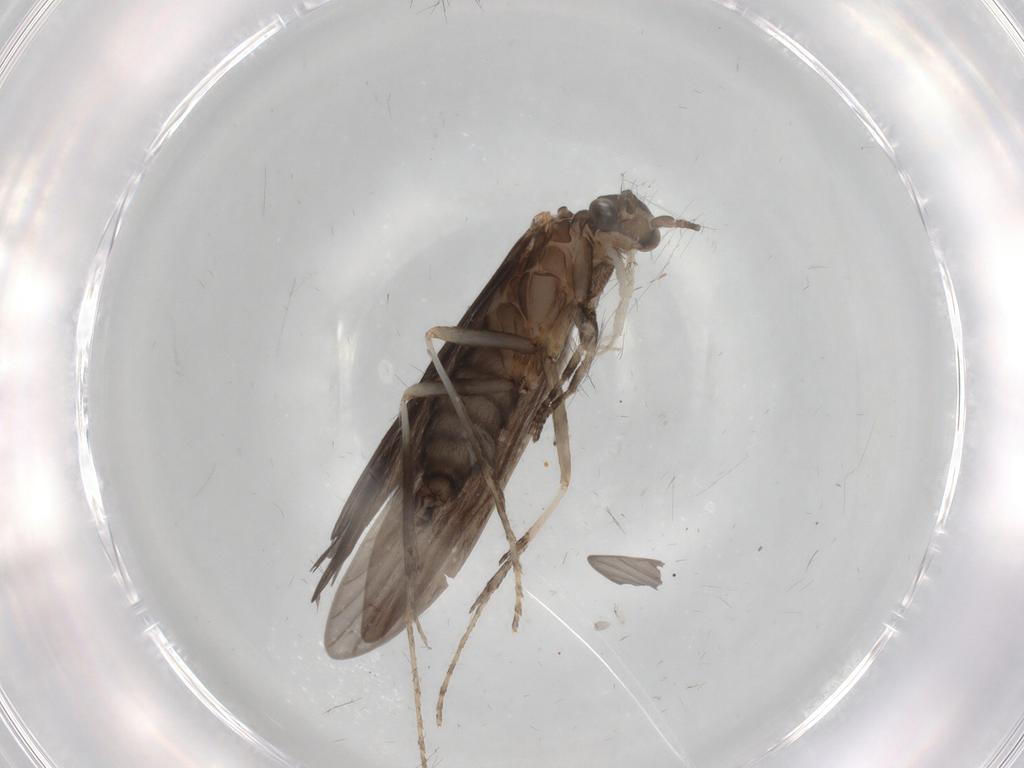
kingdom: Animalia
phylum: Arthropoda
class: Insecta
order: Trichoptera
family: Xiphocentronidae
